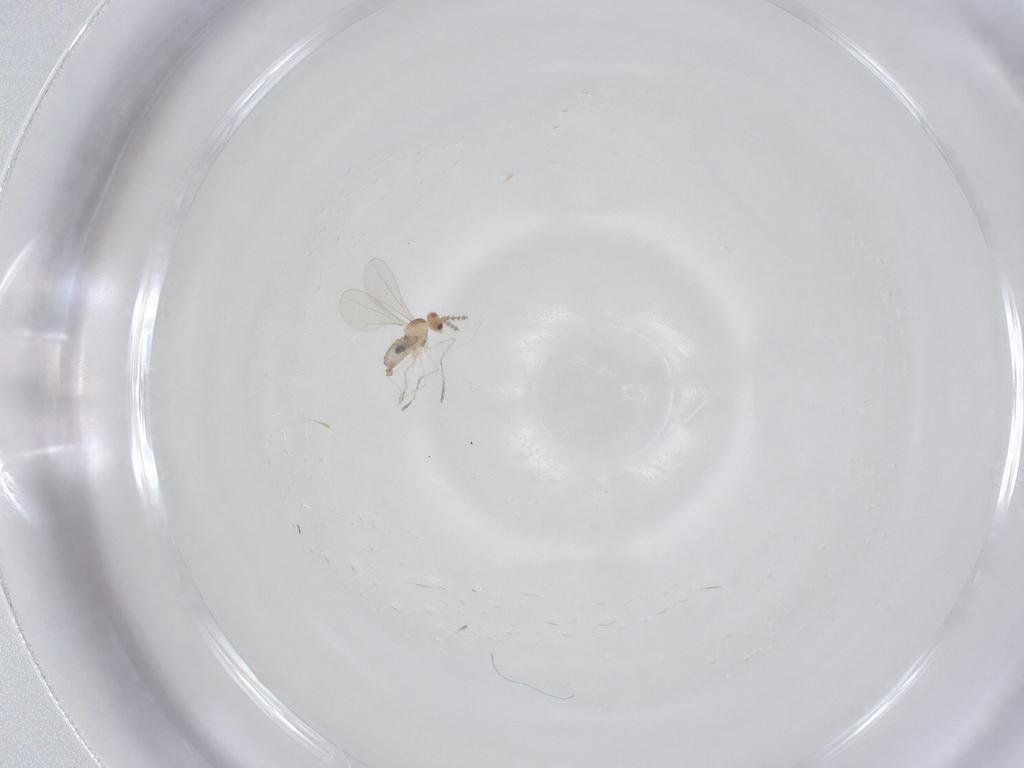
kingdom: Animalia
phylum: Arthropoda
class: Insecta
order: Diptera
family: Cecidomyiidae
